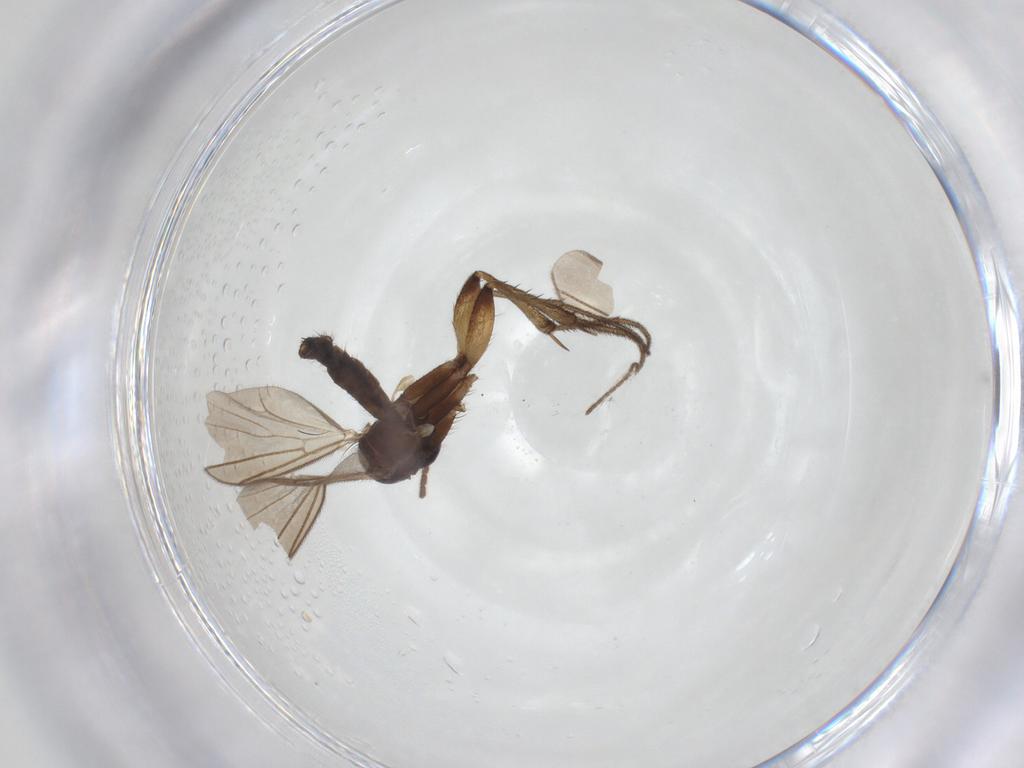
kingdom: Animalia
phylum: Arthropoda
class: Insecta
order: Diptera
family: Mycetophilidae
